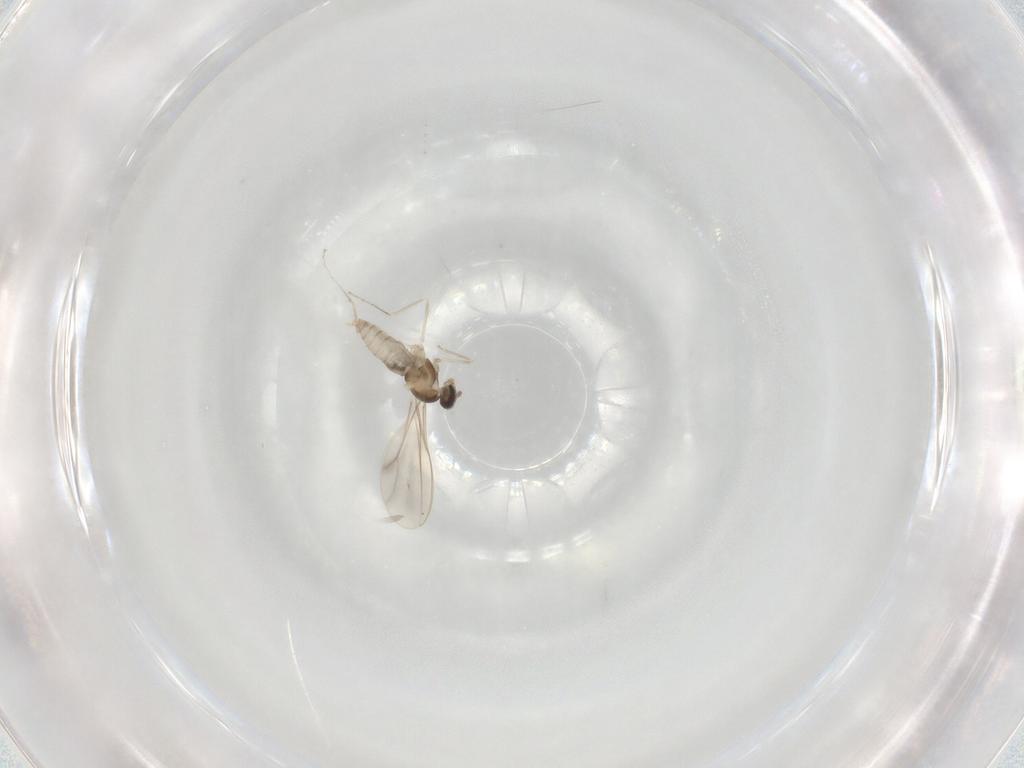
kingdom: Animalia
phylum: Arthropoda
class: Insecta
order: Diptera
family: Cecidomyiidae
